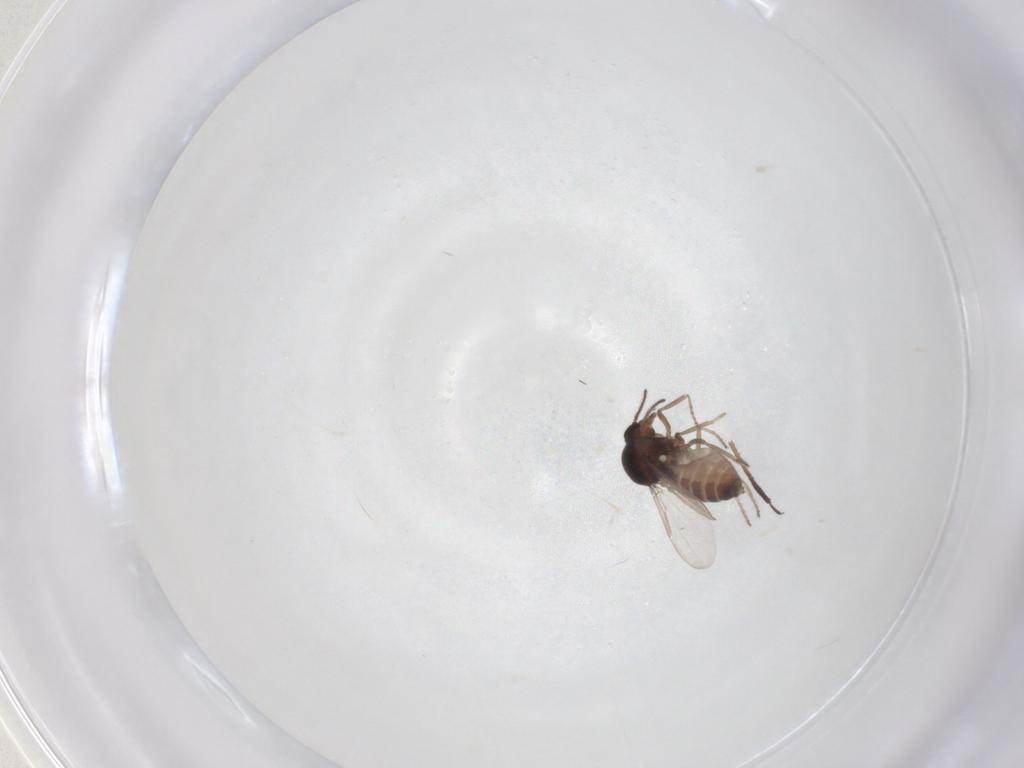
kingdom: Animalia
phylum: Arthropoda
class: Insecta
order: Diptera
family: Ceratopogonidae
